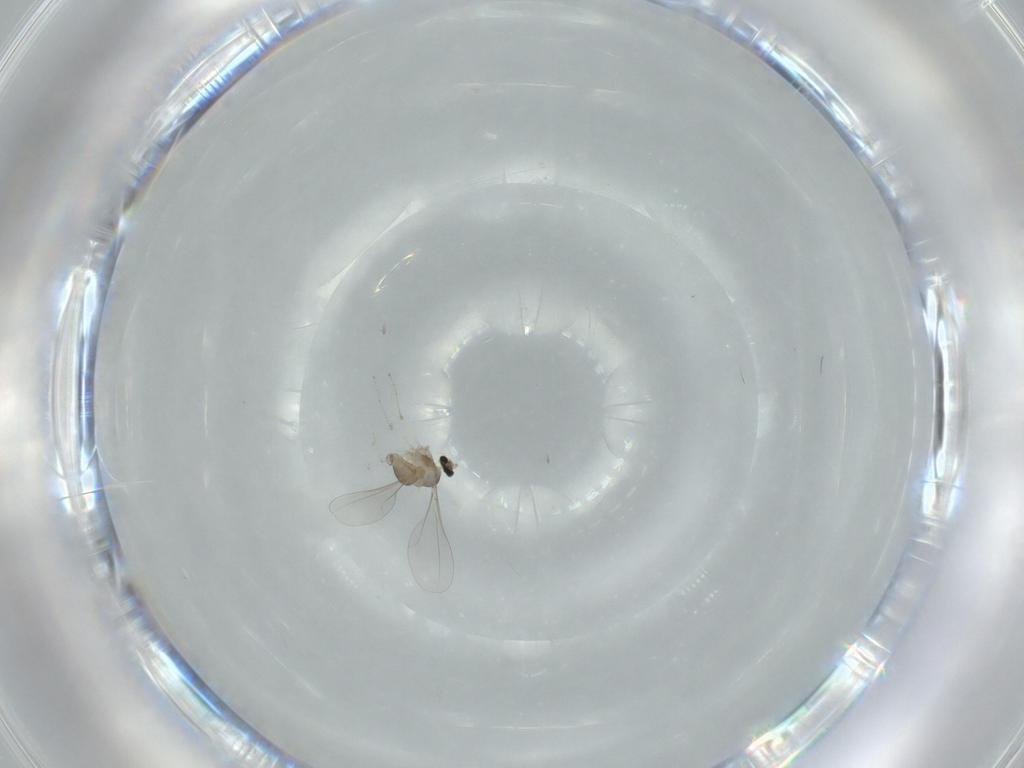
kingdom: Animalia
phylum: Arthropoda
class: Insecta
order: Diptera
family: Cecidomyiidae
